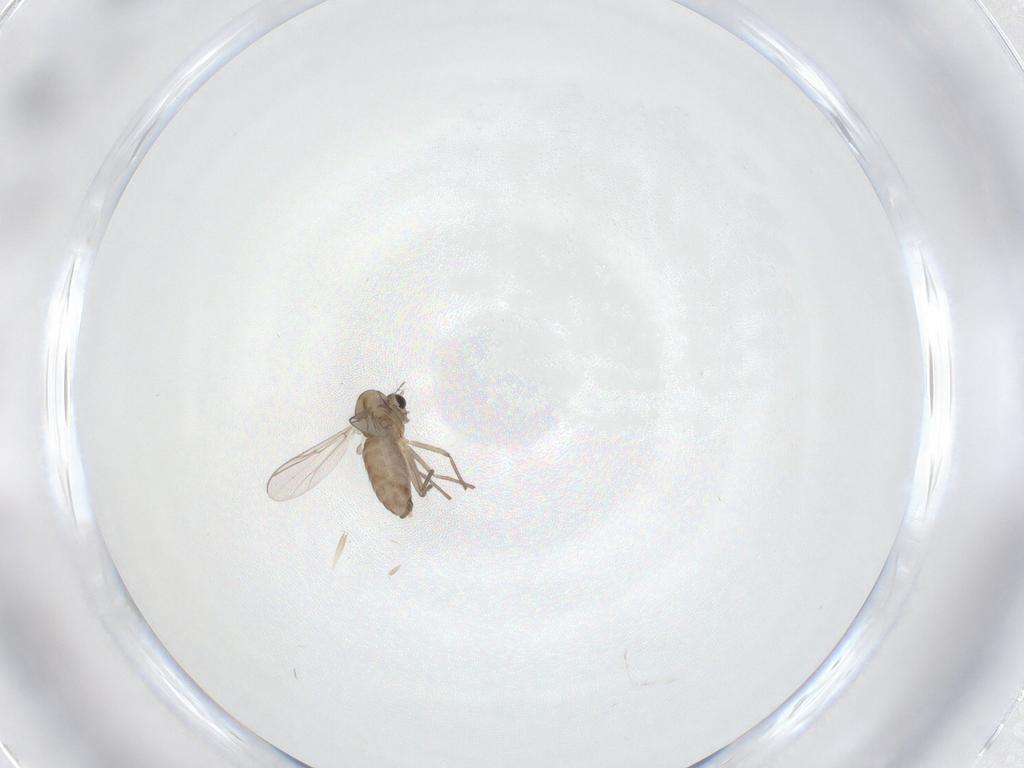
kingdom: Animalia
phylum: Arthropoda
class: Insecta
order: Diptera
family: Chironomidae
